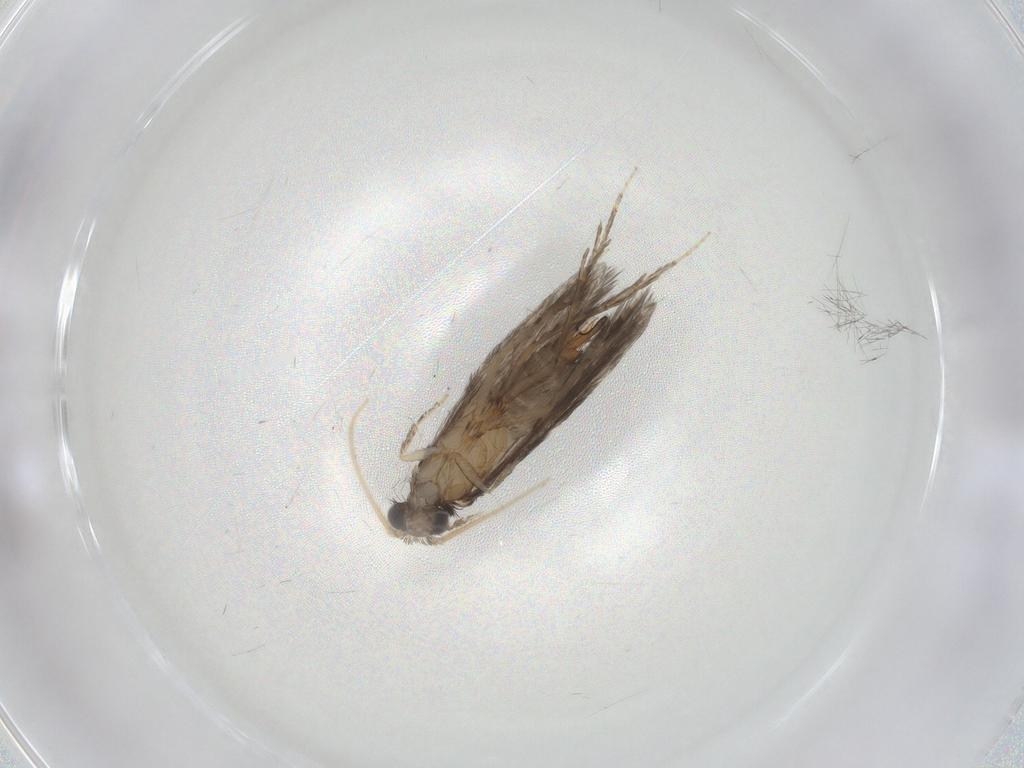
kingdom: Animalia
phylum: Arthropoda
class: Insecta
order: Trichoptera
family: Hydroptilidae
